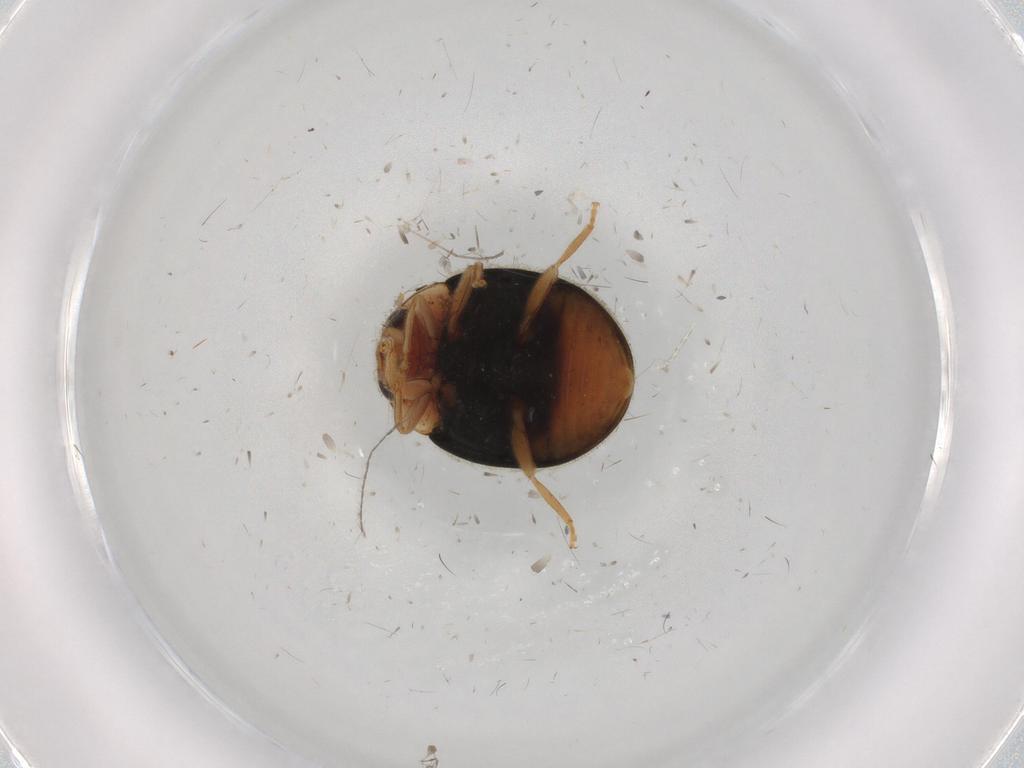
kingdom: Animalia
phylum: Arthropoda
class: Insecta
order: Coleoptera
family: Coccinellidae
